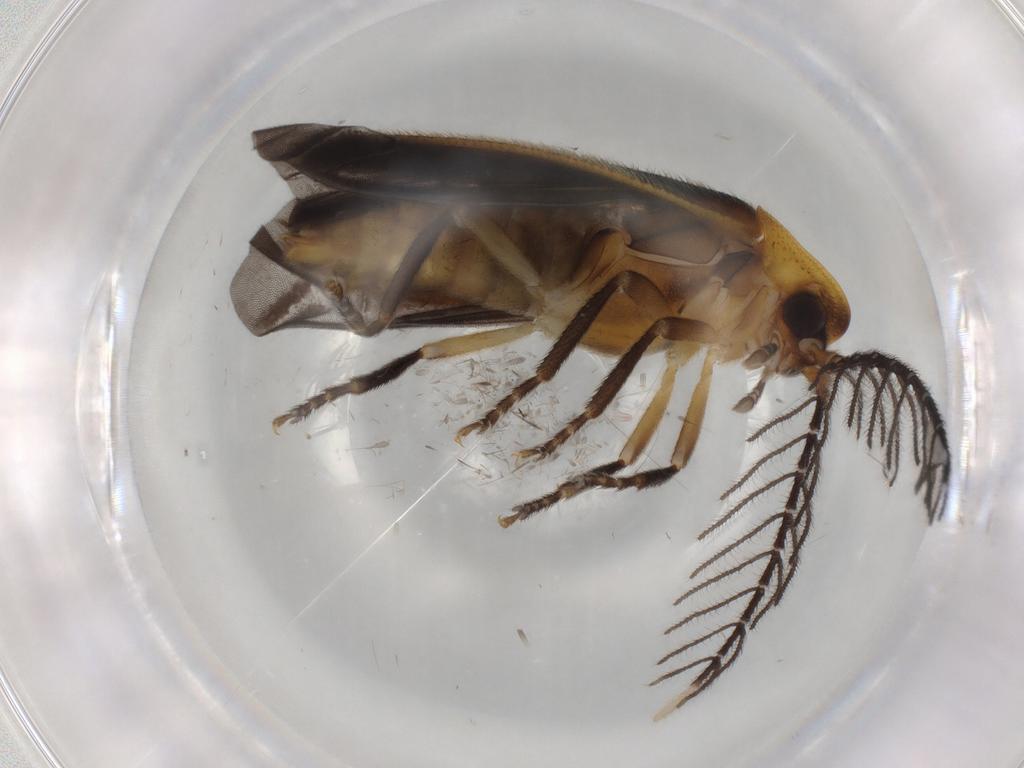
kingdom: Animalia
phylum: Arthropoda
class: Insecta
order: Coleoptera
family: Lampyridae
